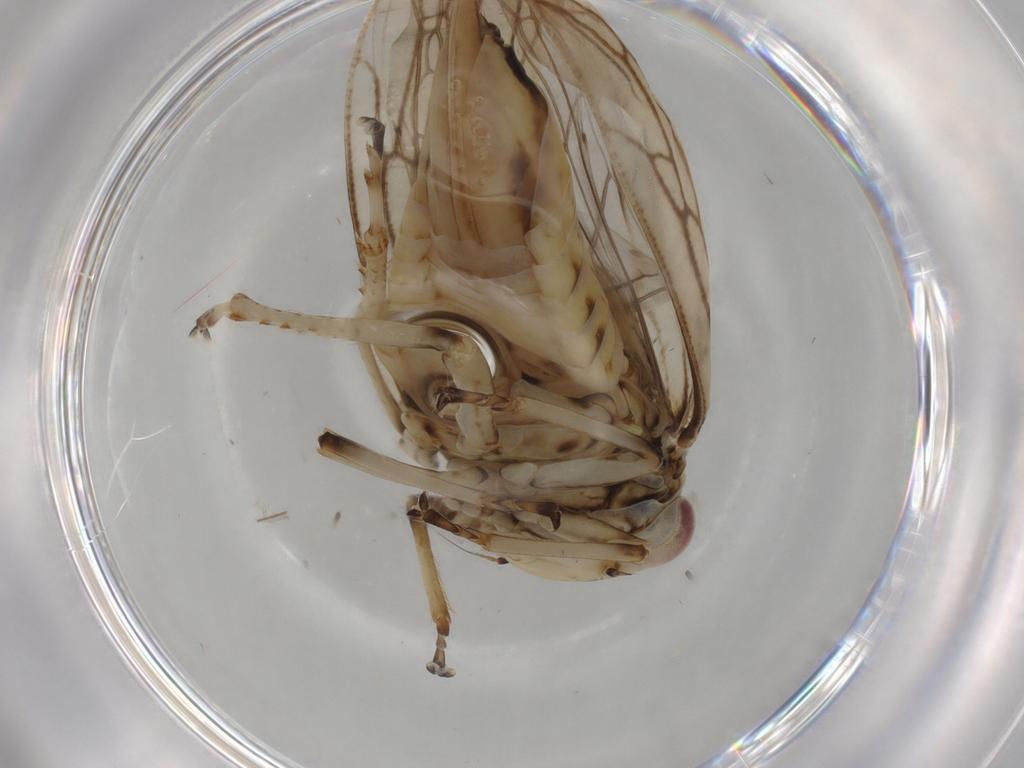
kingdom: Animalia
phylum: Arthropoda
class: Insecta
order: Hemiptera
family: Cicadellidae
